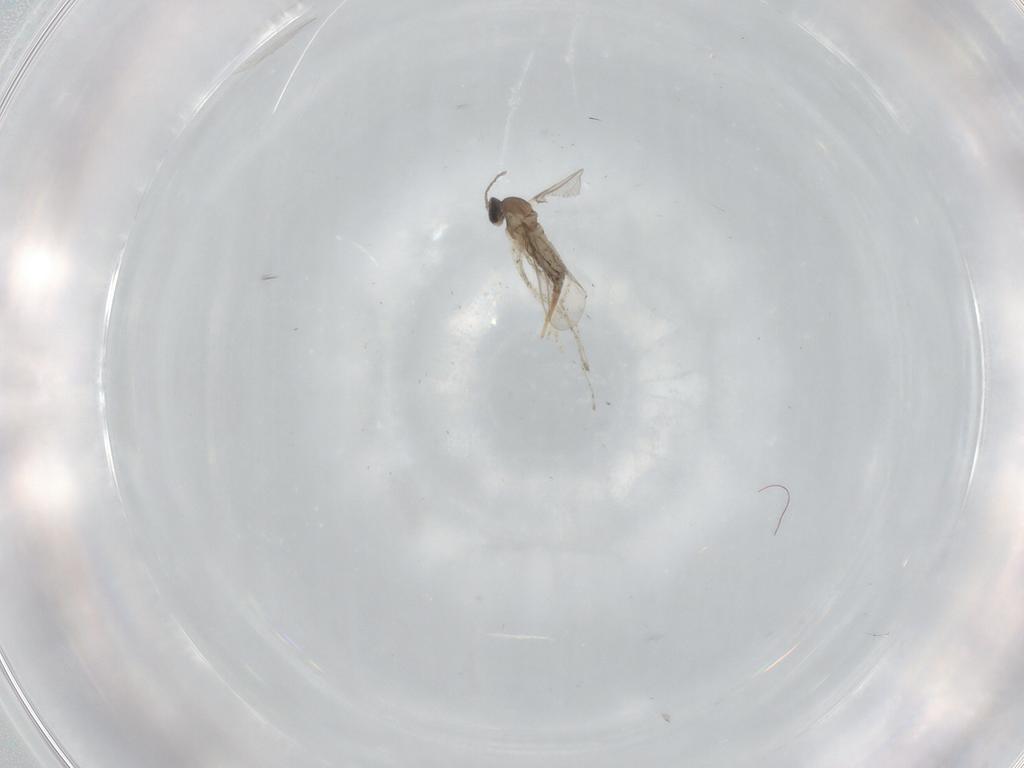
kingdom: Animalia
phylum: Arthropoda
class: Insecta
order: Diptera
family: Cecidomyiidae
